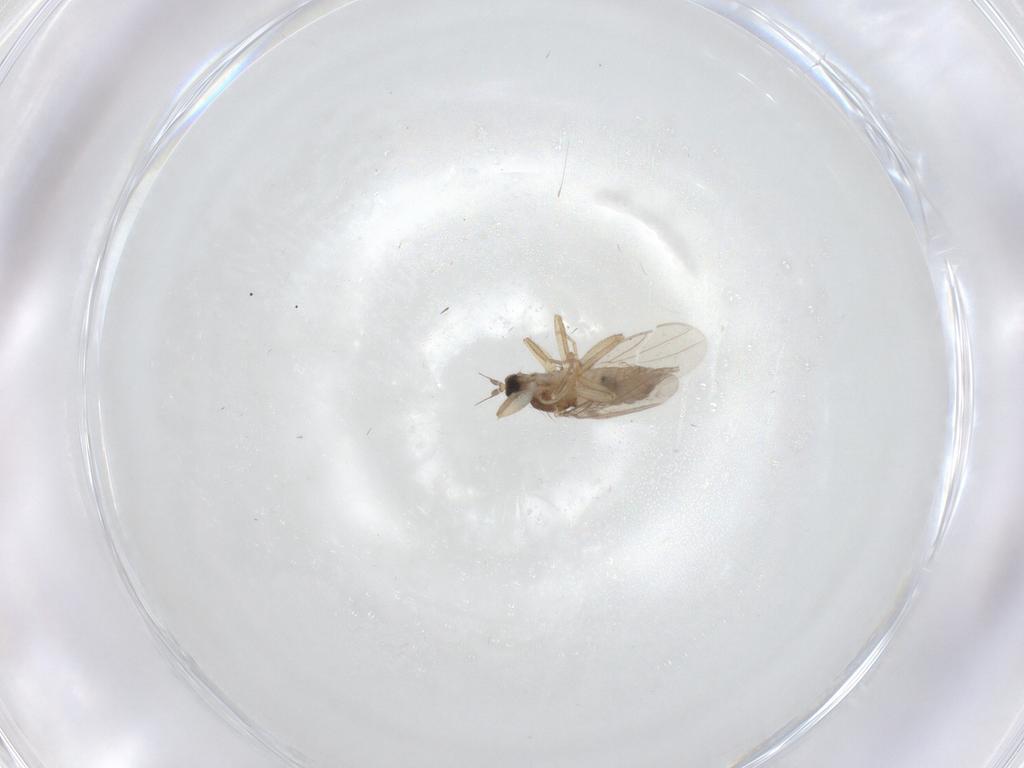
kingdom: Animalia
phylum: Arthropoda
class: Insecta
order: Diptera
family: Hybotidae
